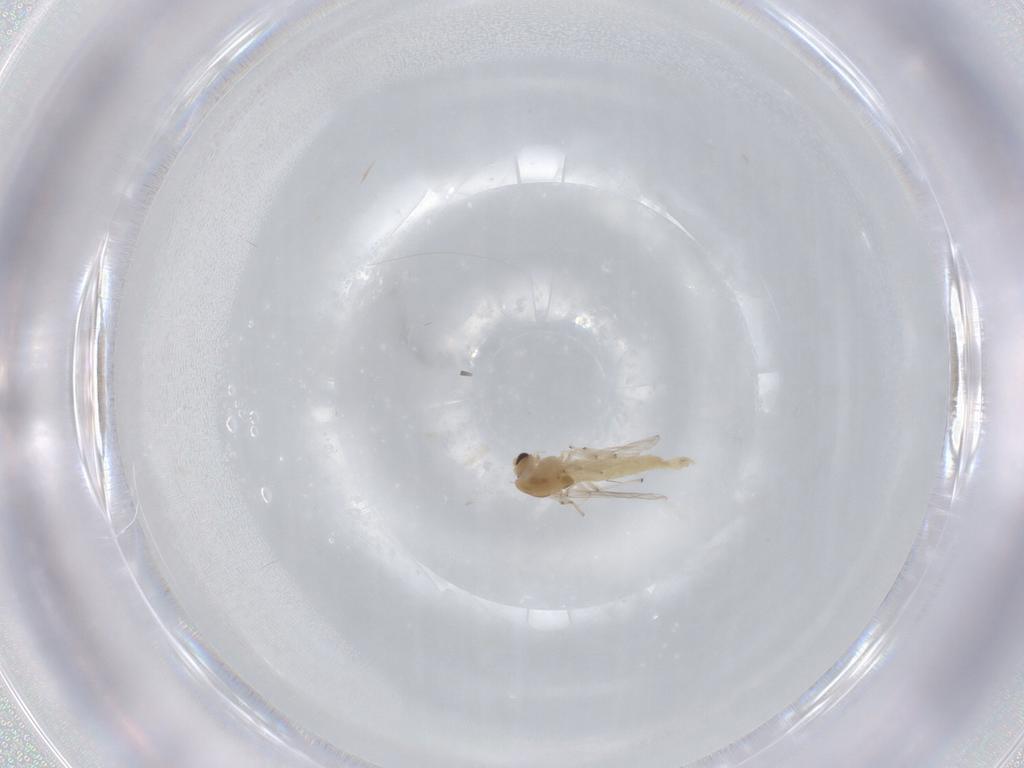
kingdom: Animalia
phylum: Arthropoda
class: Insecta
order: Diptera
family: Chironomidae
